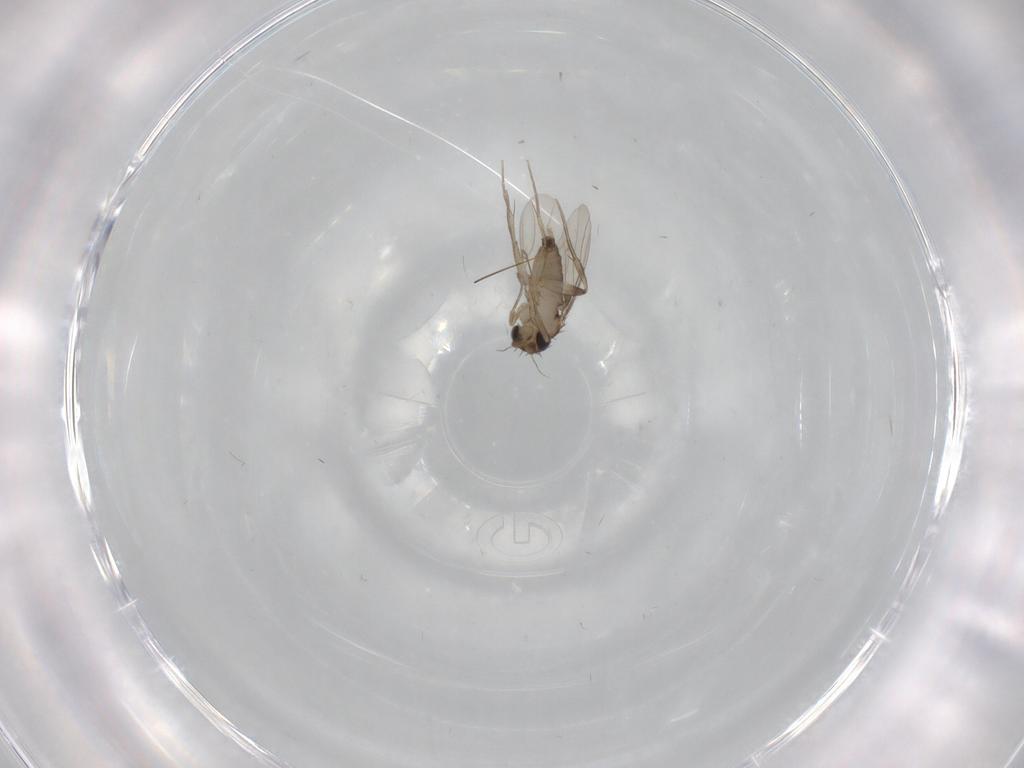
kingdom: Animalia
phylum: Arthropoda
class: Insecta
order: Diptera
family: Phoridae
